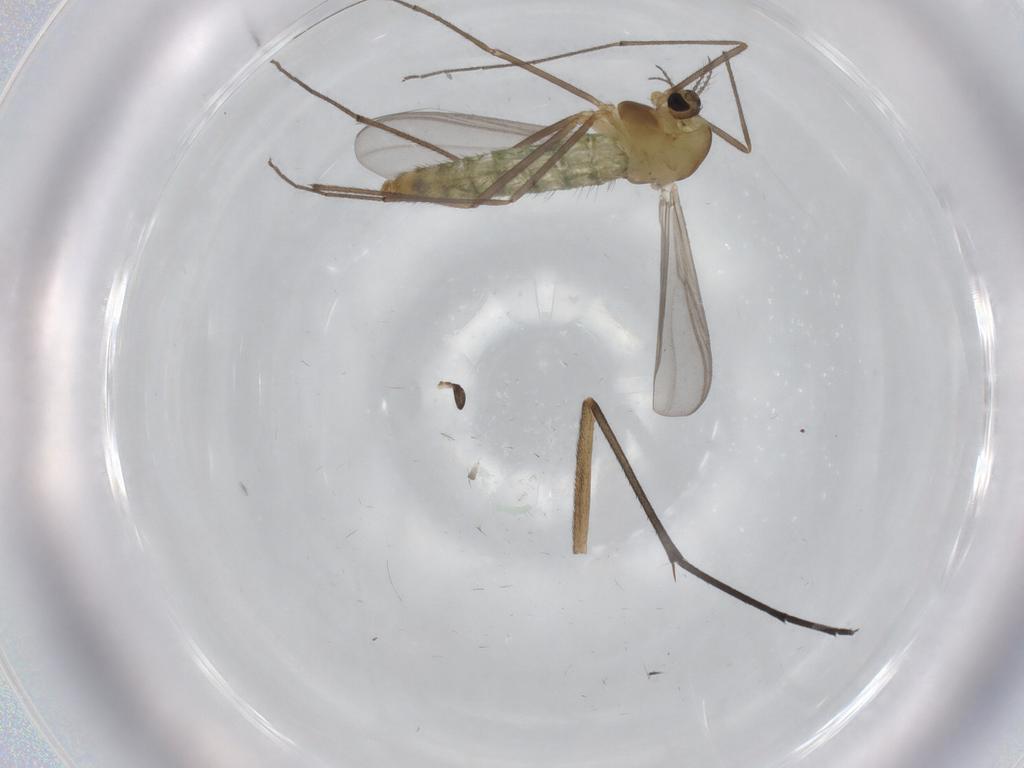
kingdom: Animalia
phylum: Arthropoda
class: Insecta
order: Diptera
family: Sciaridae
